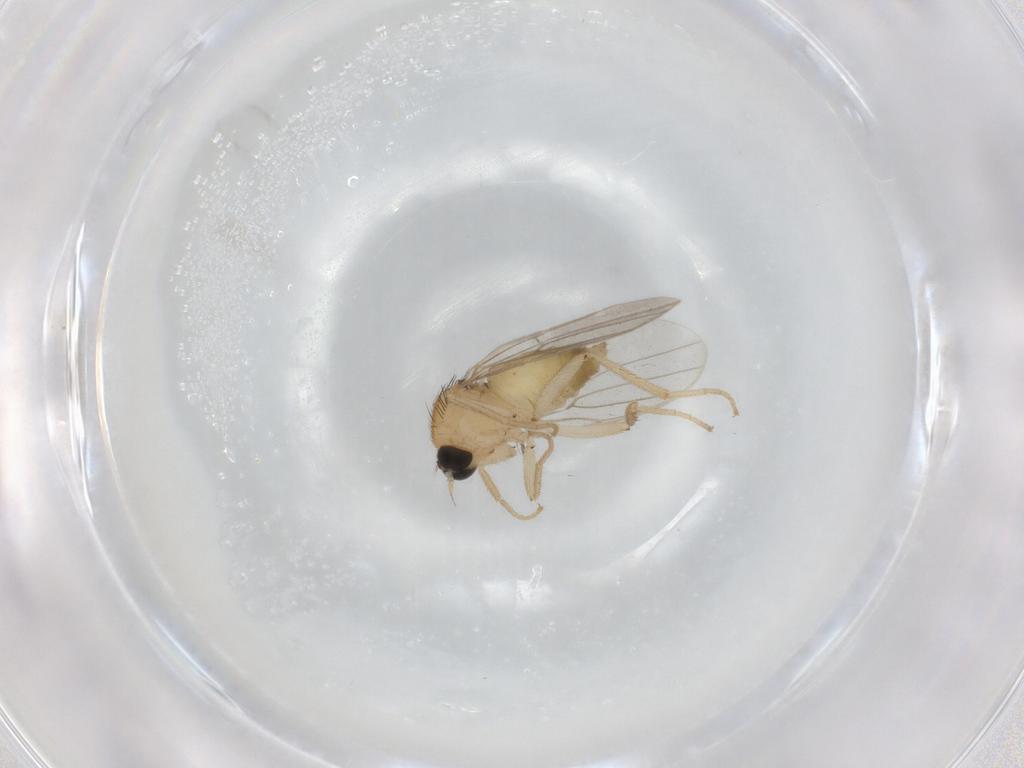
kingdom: Animalia
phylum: Arthropoda
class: Insecta
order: Diptera
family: Hybotidae
